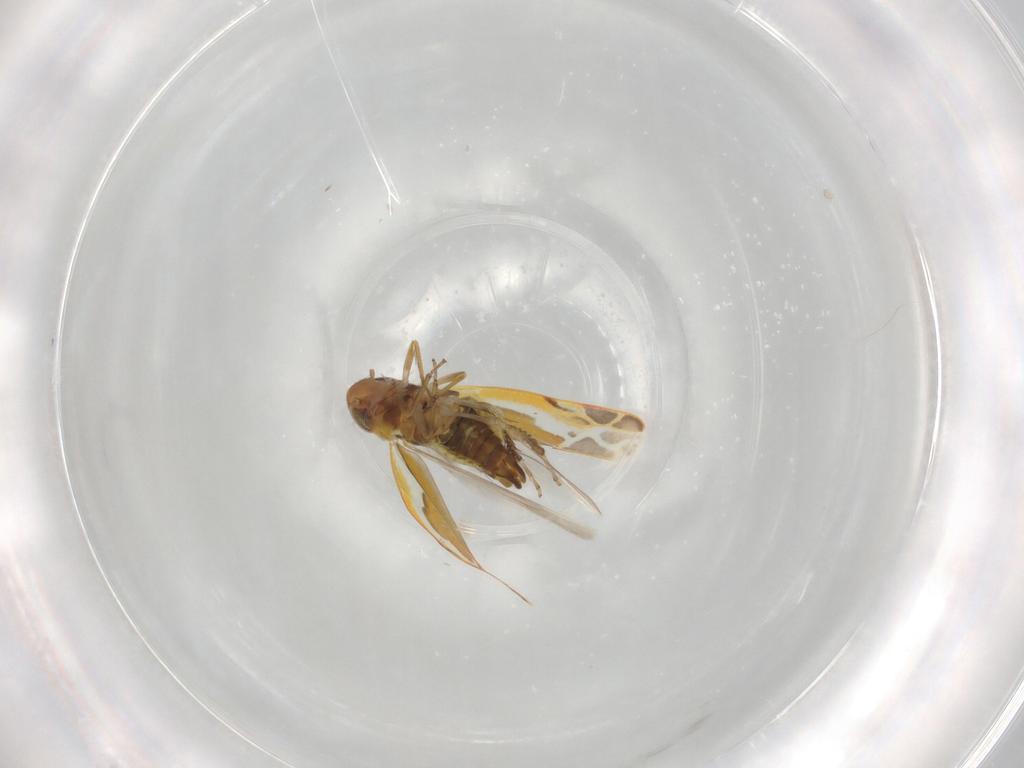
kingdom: Animalia
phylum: Arthropoda
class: Insecta
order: Hemiptera
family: Cicadellidae
